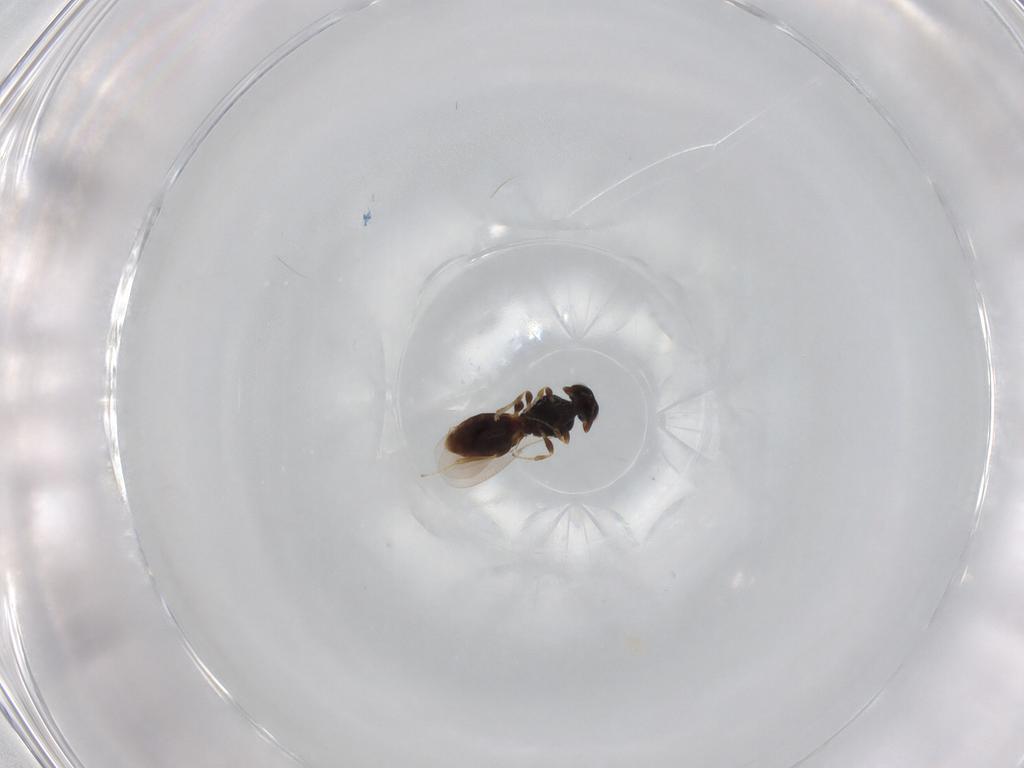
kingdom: Animalia
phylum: Arthropoda
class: Insecta
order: Hymenoptera
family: Platygastridae
